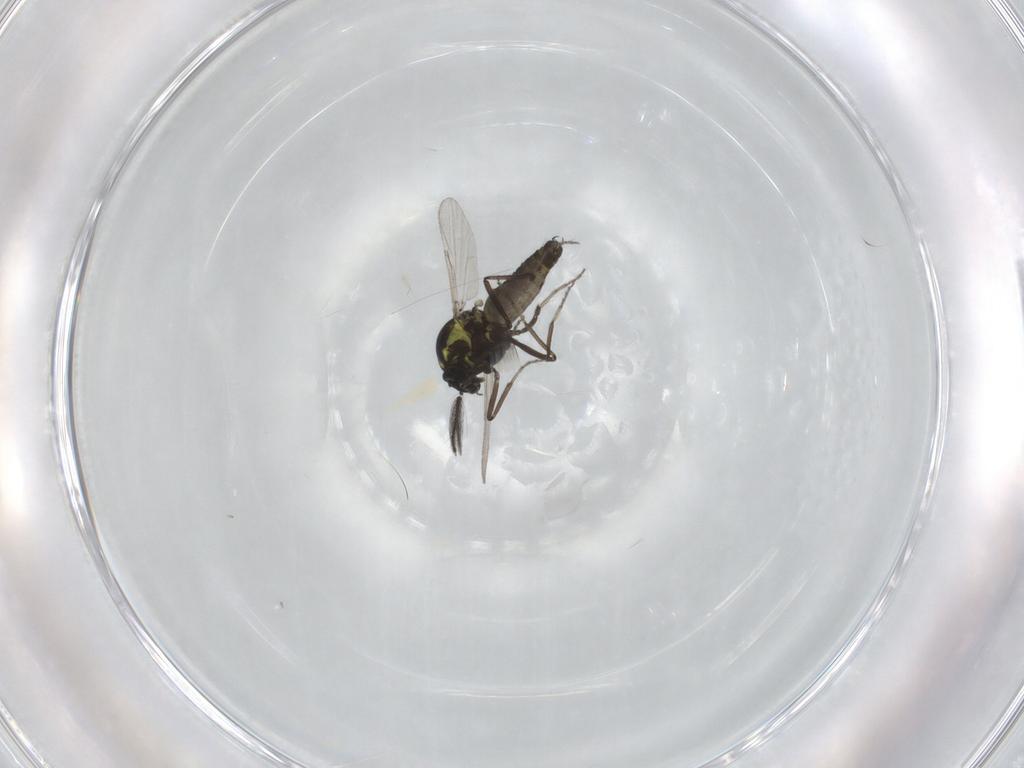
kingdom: Animalia
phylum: Arthropoda
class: Insecta
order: Diptera
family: Ceratopogonidae
